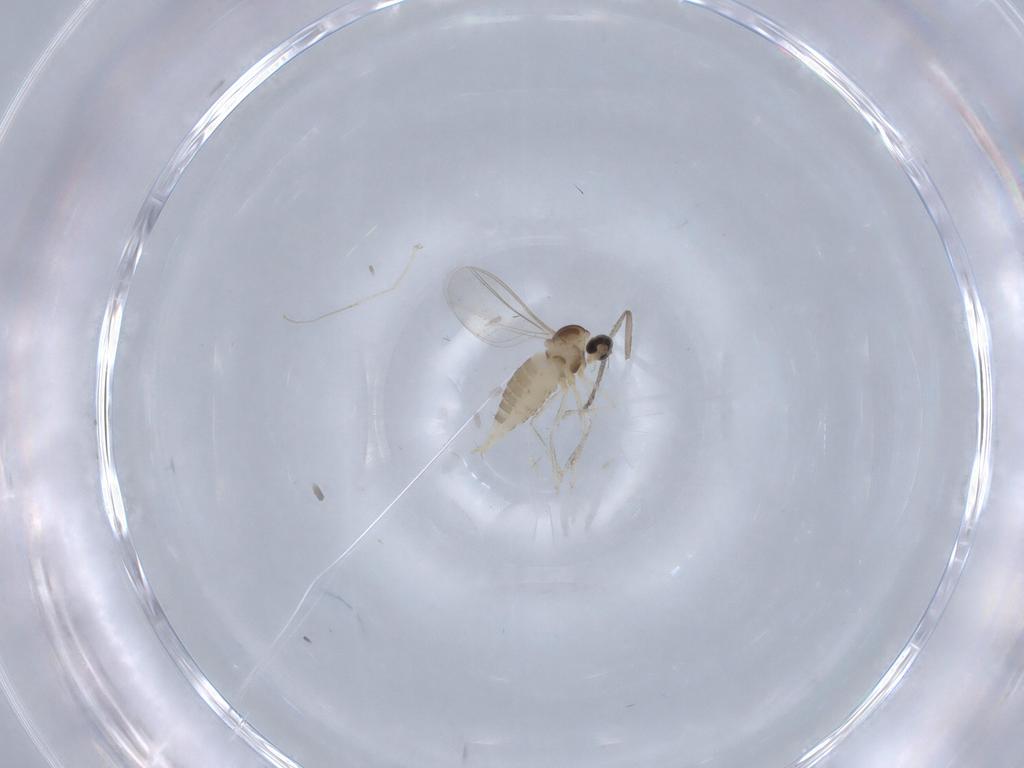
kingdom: Animalia
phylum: Arthropoda
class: Insecta
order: Diptera
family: Cecidomyiidae
